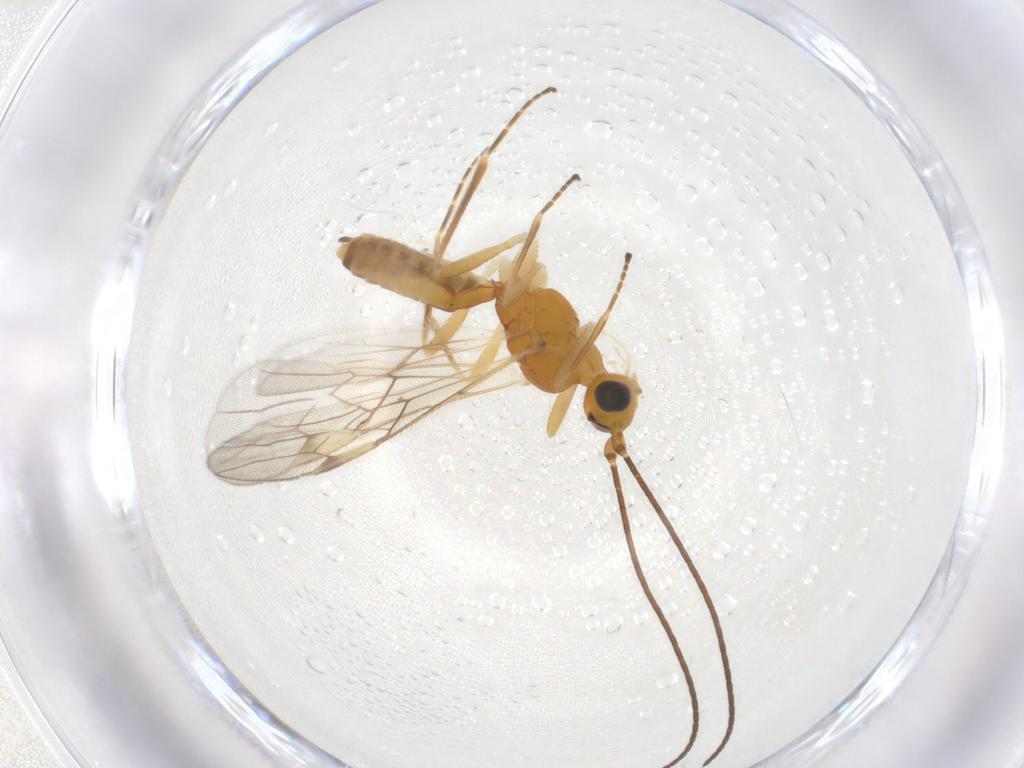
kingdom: Animalia
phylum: Arthropoda
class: Insecta
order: Hymenoptera
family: Braconidae
